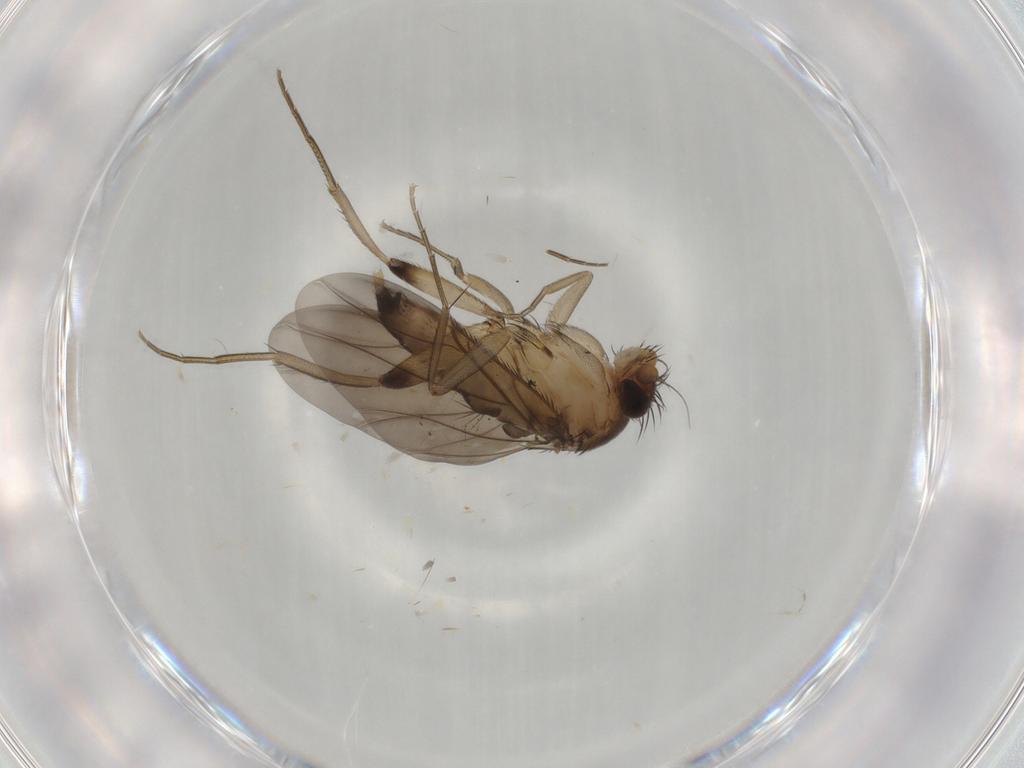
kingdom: Animalia
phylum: Arthropoda
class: Insecta
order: Diptera
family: Phoridae
